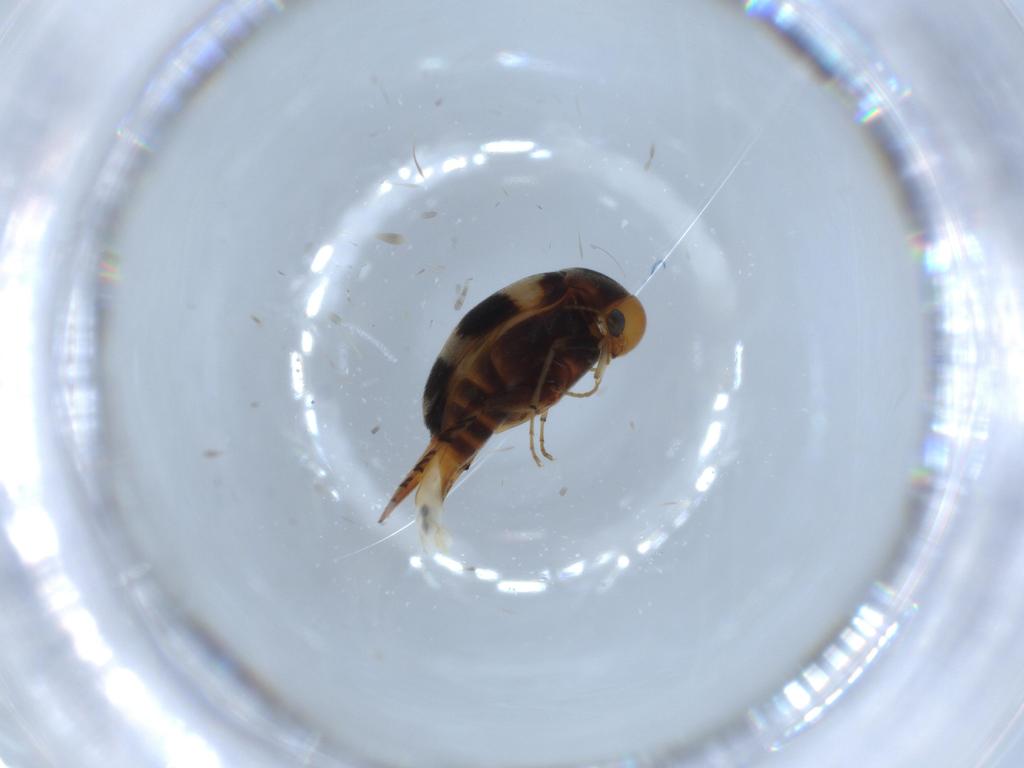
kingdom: Animalia
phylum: Arthropoda
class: Insecta
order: Coleoptera
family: Mordellidae
